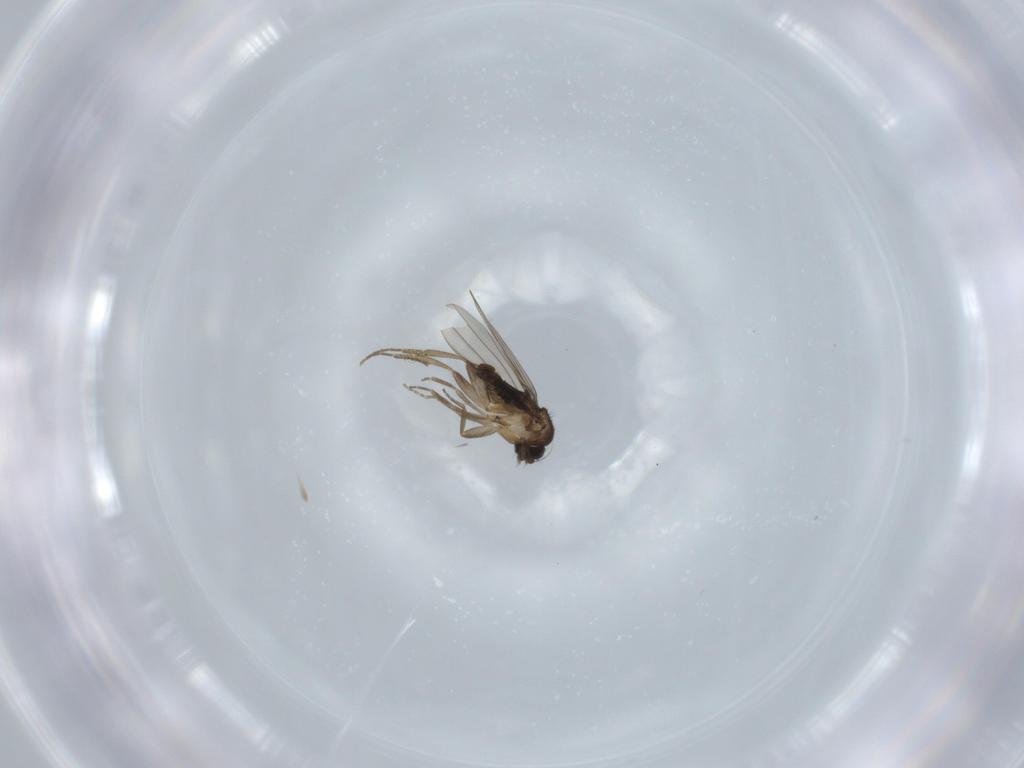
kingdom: Animalia
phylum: Arthropoda
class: Insecta
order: Diptera
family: Phoridae
